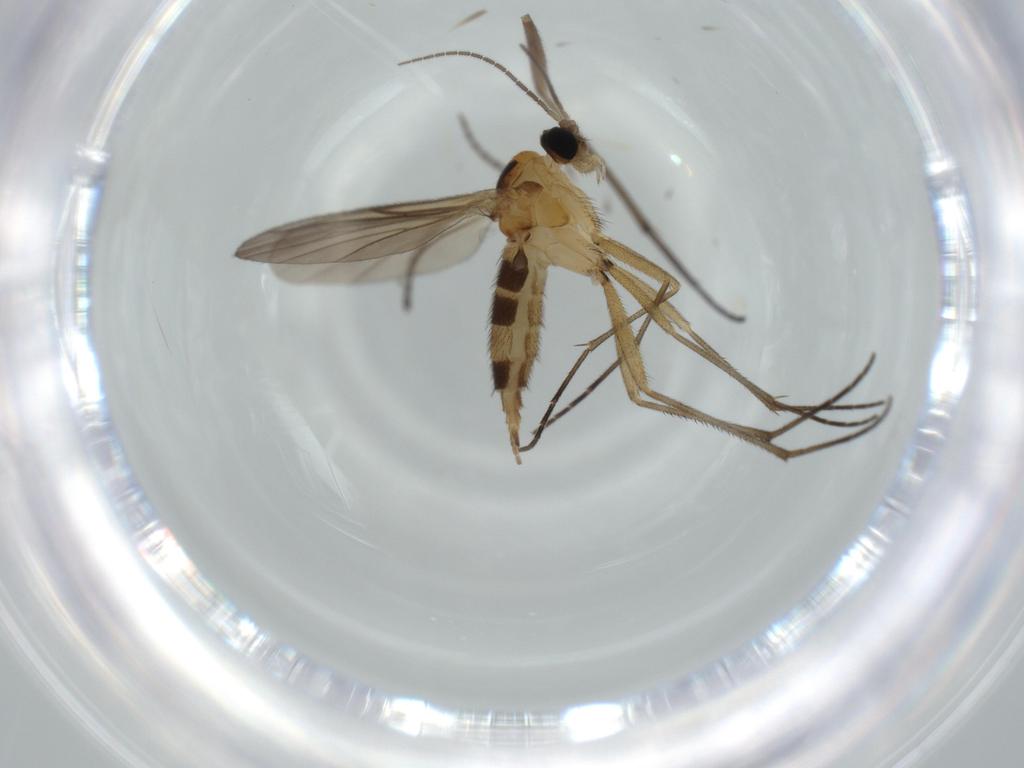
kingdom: Animalia
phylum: Arthropoda
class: Insecta
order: Diptera
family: Sciaridae
